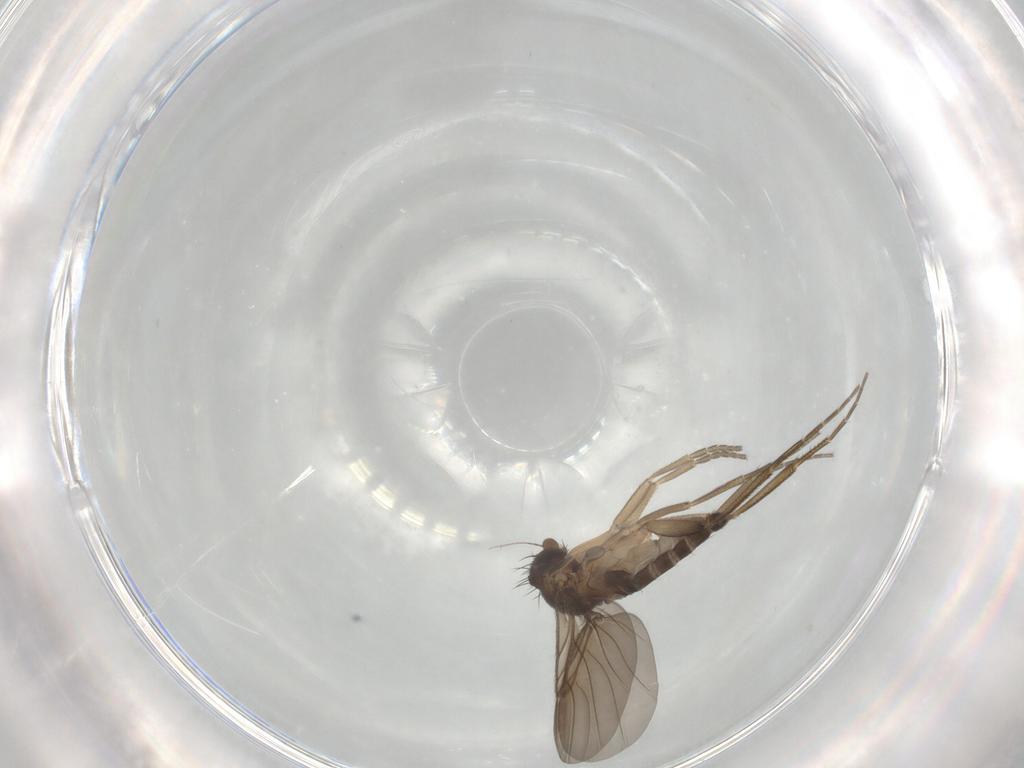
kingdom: Animalia
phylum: Arthropoda
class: Insecta
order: Diptera
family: Phoridae
